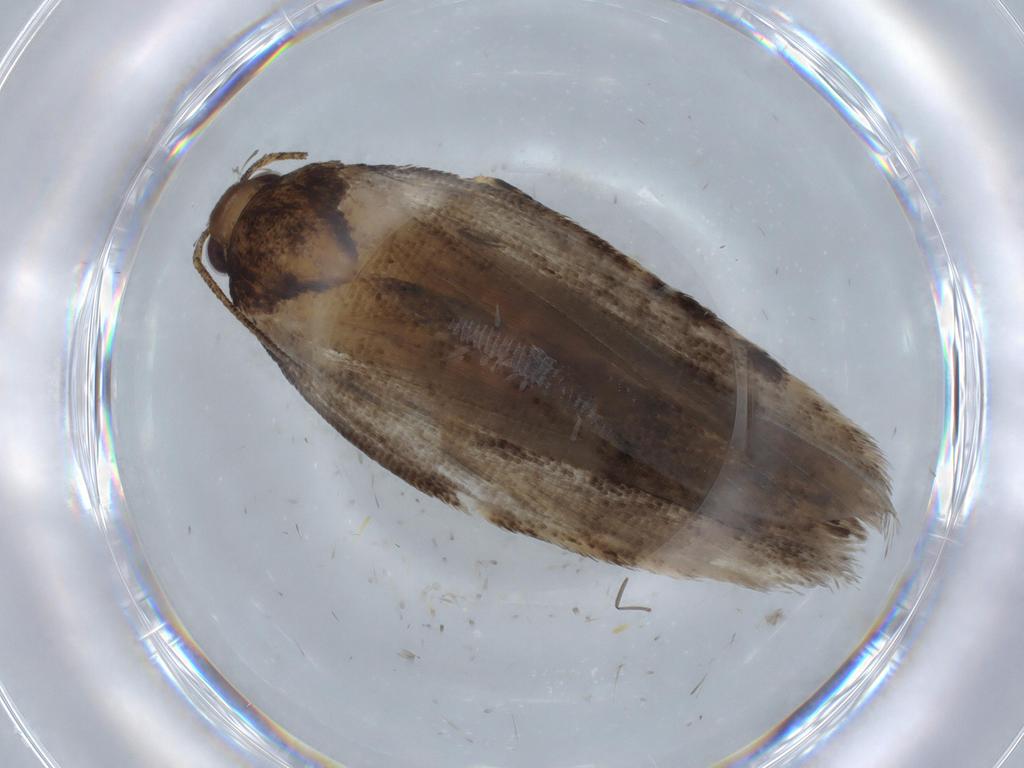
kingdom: Animalia
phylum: Arthropoda
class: Insecta
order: Lepidoptera
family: Gelechiidae
